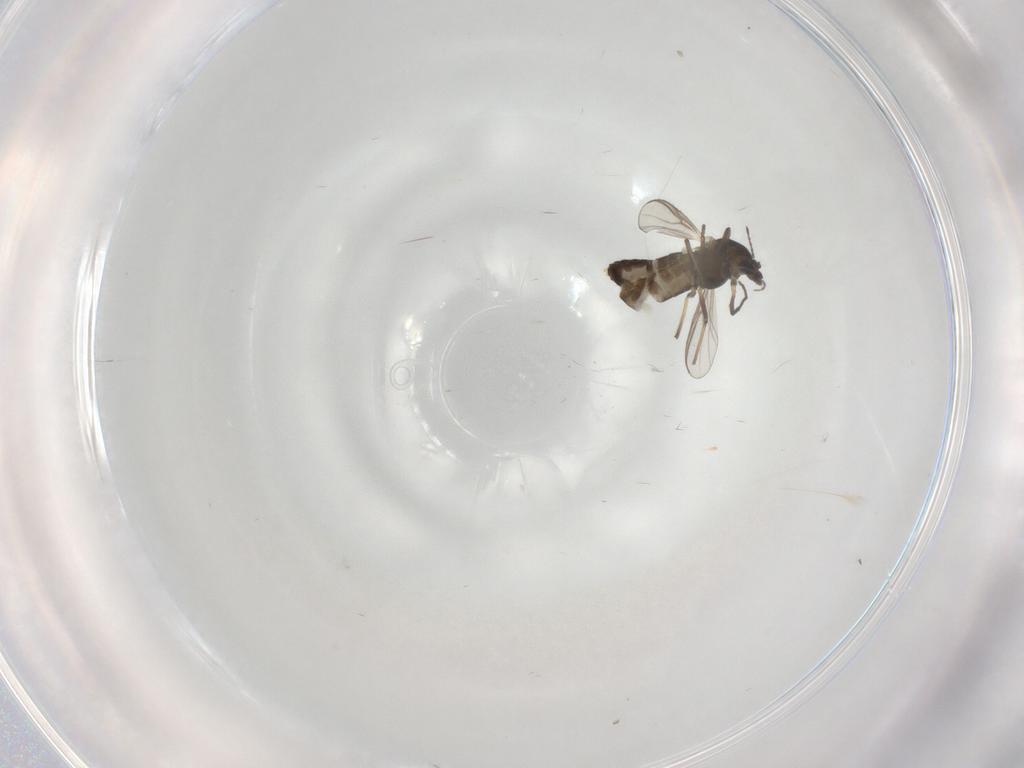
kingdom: Animalia
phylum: Arthropoda
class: Insecta
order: Diptera
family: Chironomidae
